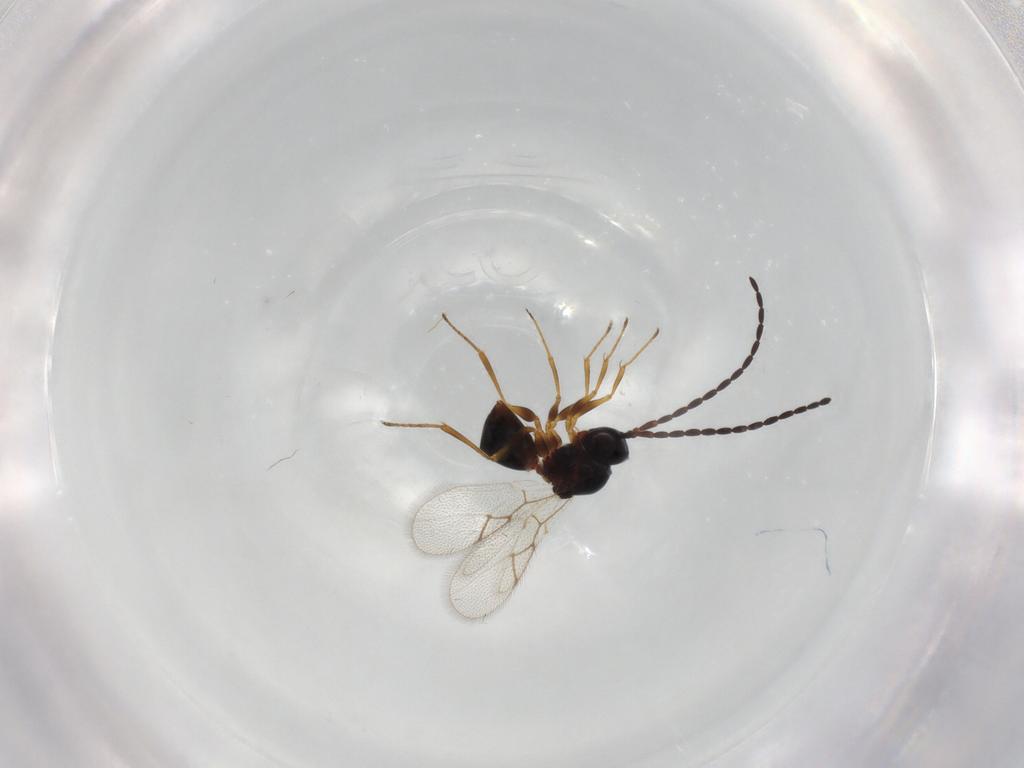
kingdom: Animalia
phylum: Arthropoda
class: Insecta
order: Hymenoptera
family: Figitidae
